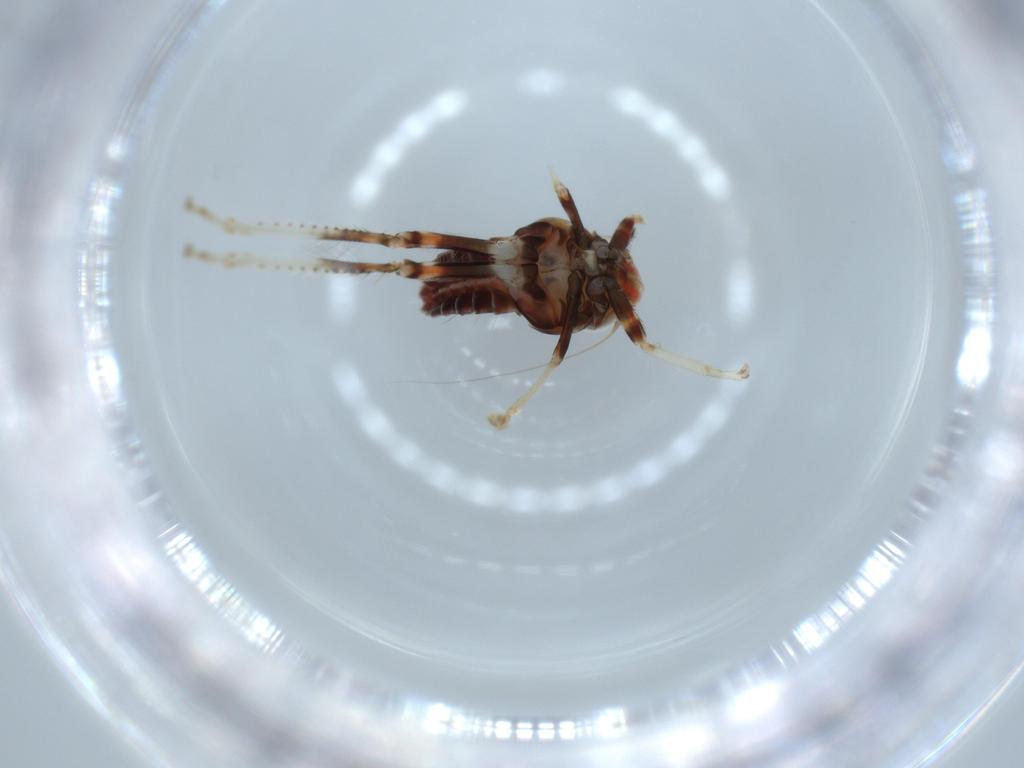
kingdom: Animalia
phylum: Arthropoda
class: Insecta
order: Hemiptera
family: Cicadellidae
